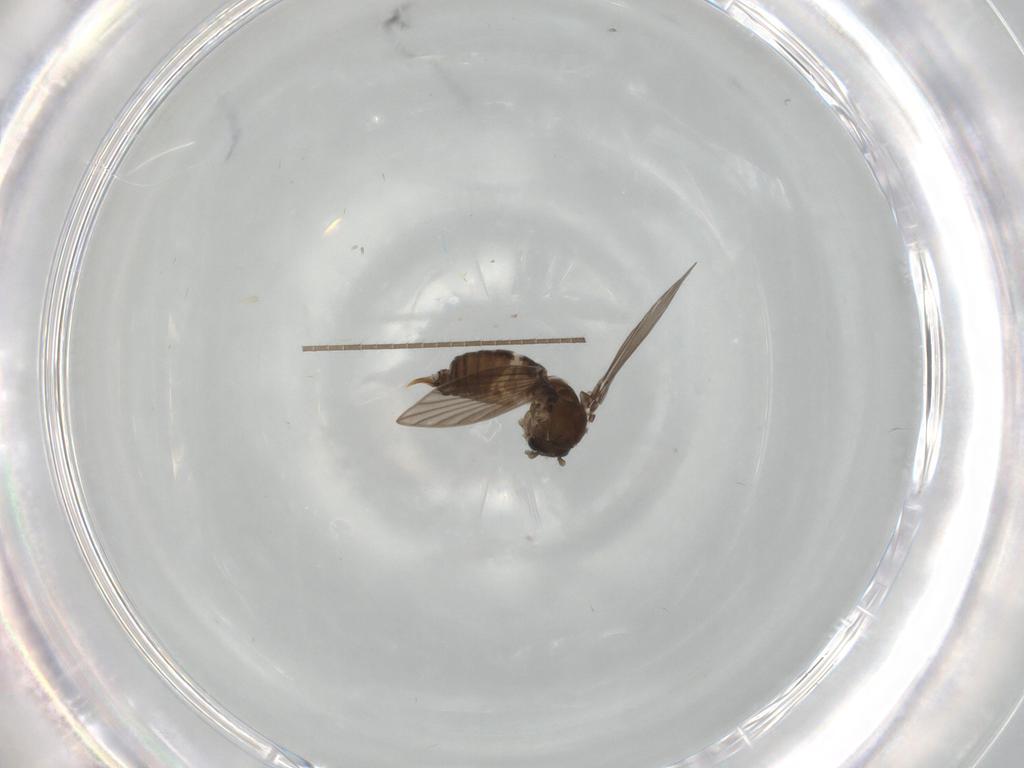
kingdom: Animalia
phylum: Arthropoda
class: Insecta
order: Diptera
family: Psychodidae
